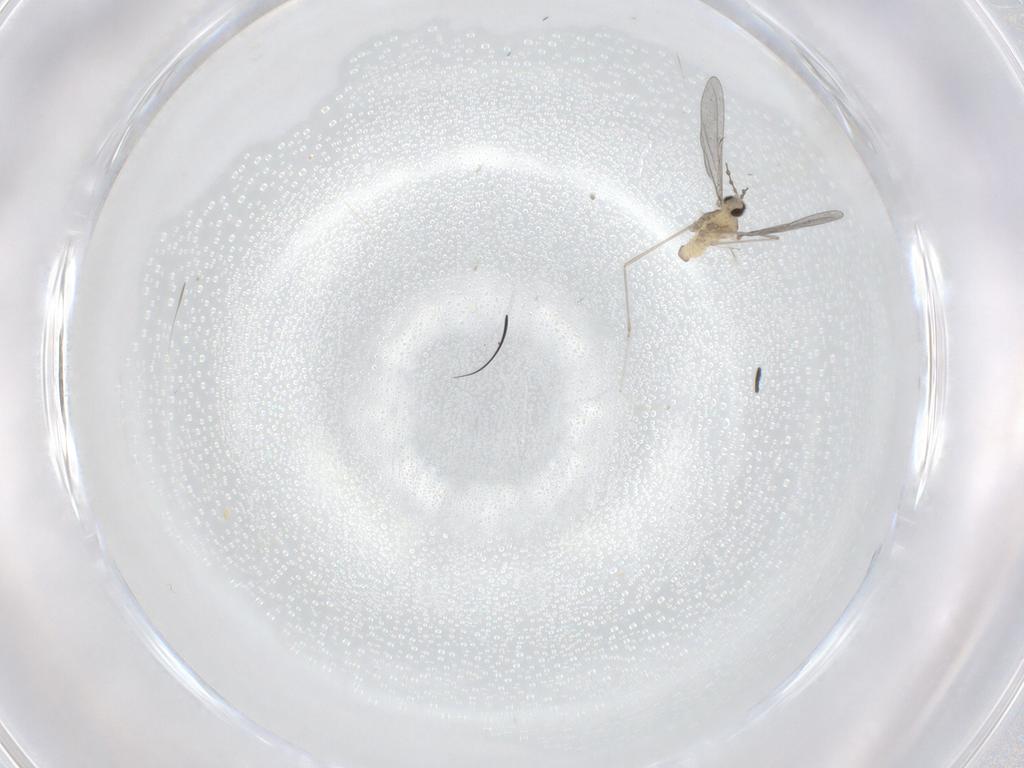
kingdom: Animalia
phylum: Arthropoda
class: Insecta
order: Diptera
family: Cecidomyiidae
